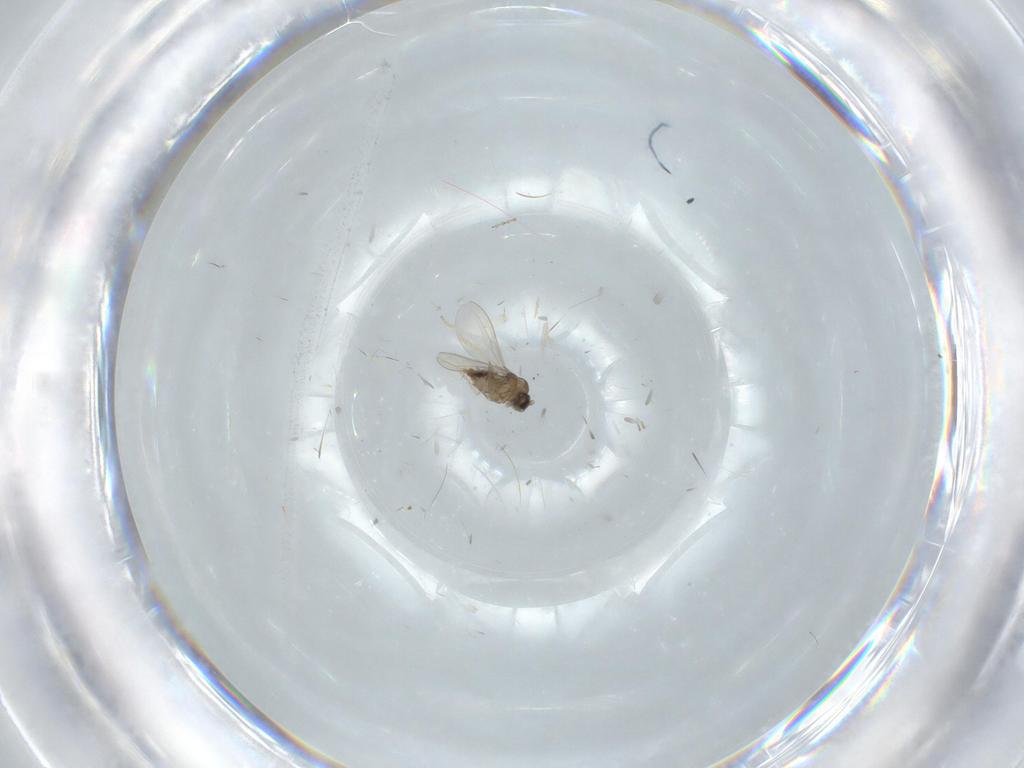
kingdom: Animalia
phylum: Arthropoda
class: Insecta
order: Diptera
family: Cecidomyiidae
